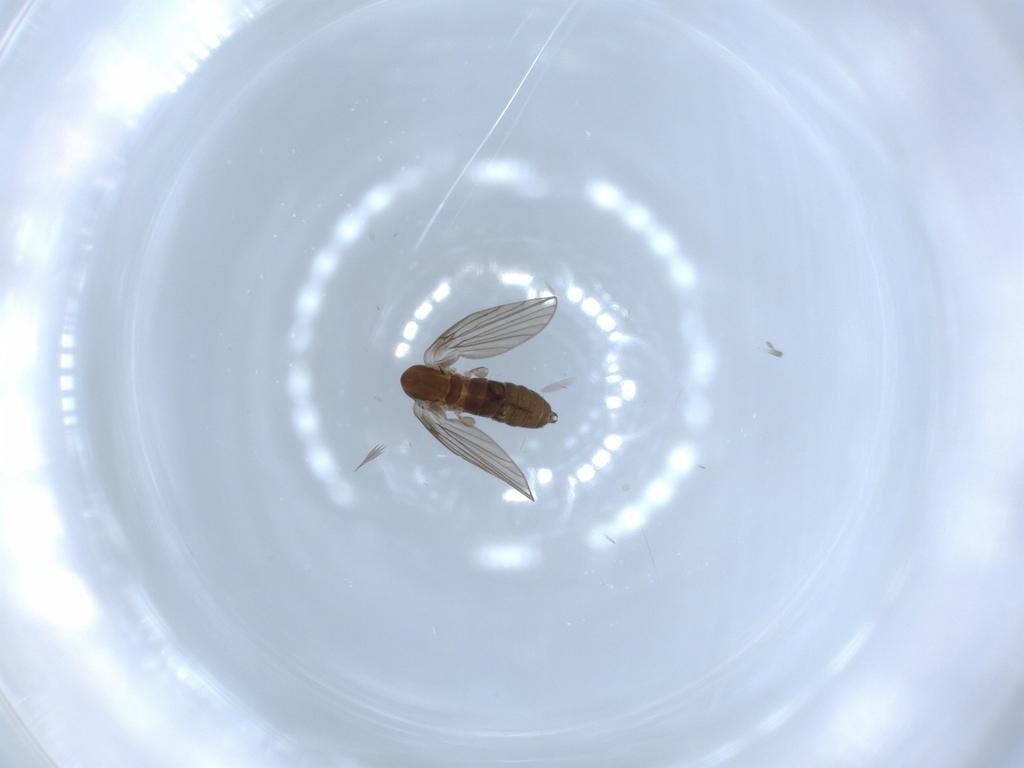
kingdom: Animalia
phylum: Arthropoda
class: Insecta
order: Diptera
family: Psychodidae
